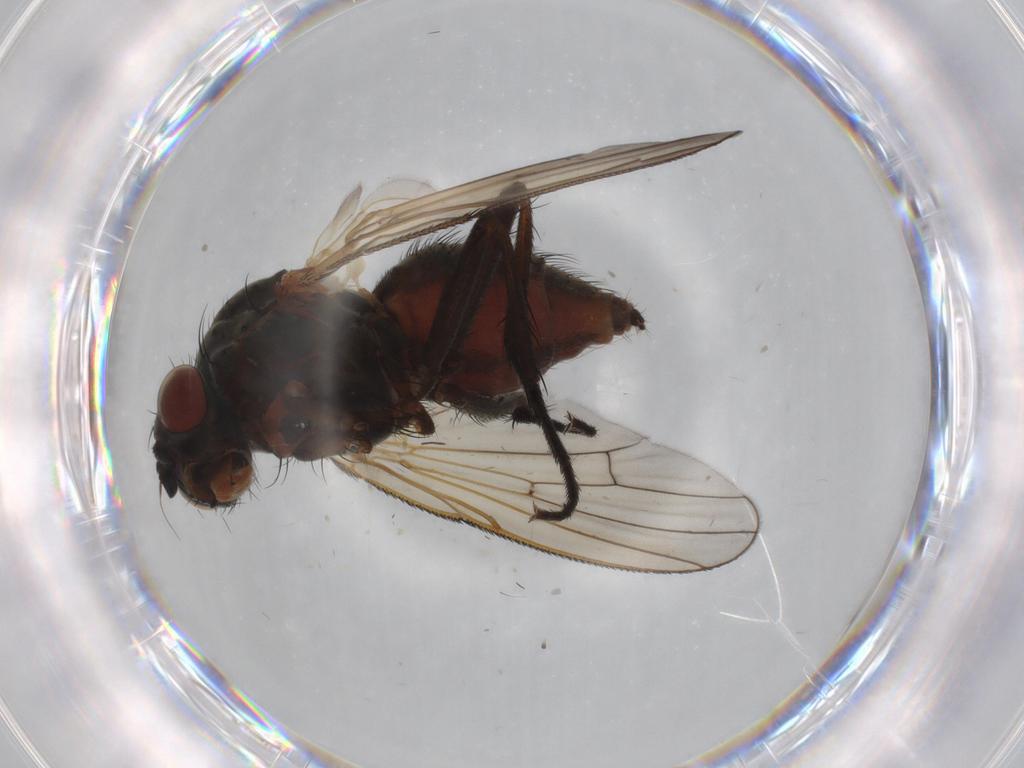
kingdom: Animalia
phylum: Arthropoda
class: Insecta
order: Diptera
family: Anthomyiidae
